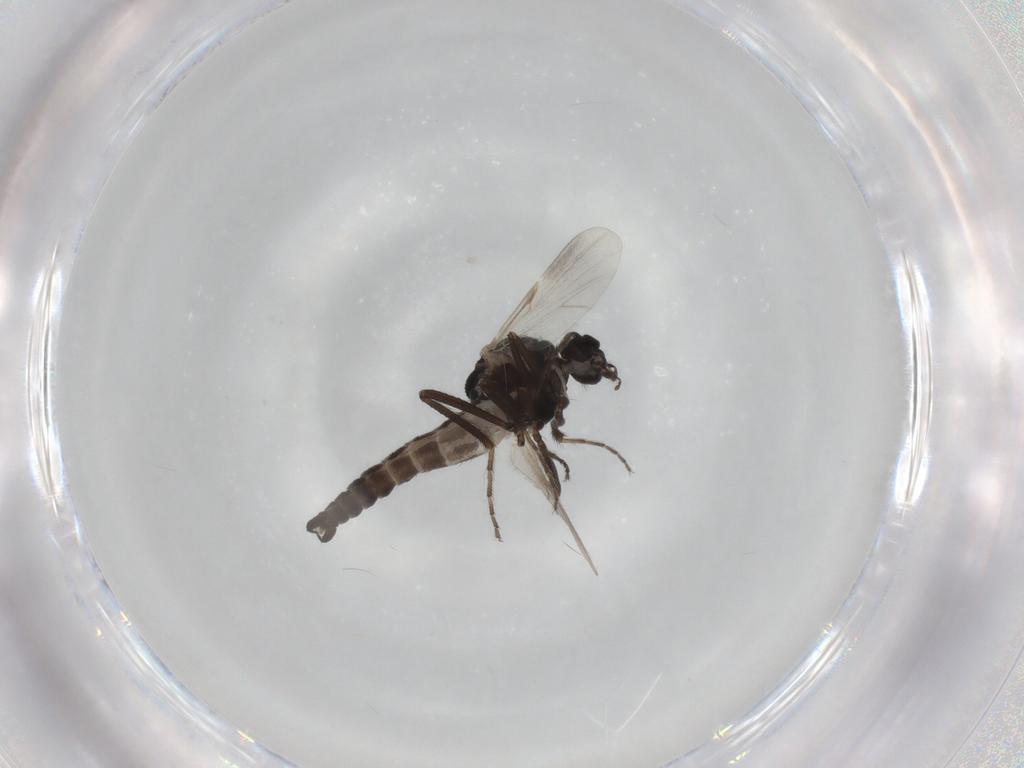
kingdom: Animalia
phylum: Arthropoda
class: Insecta
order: Diptera
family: Ceratopogonidae
